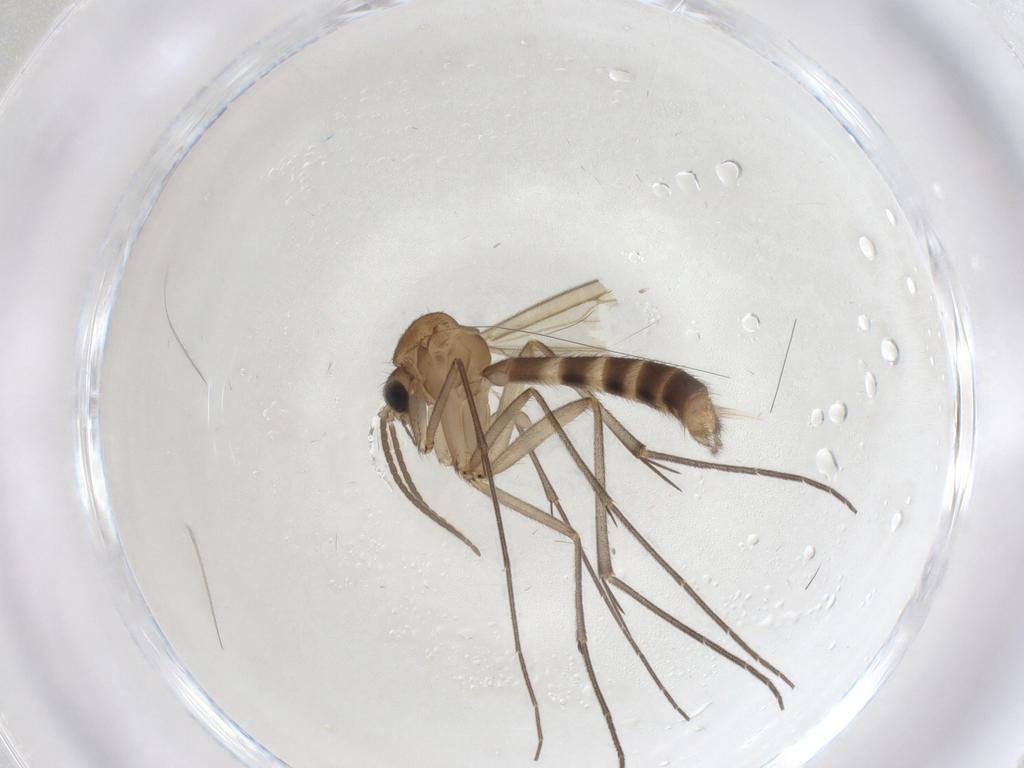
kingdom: Animalia
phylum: Arthropoda
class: Insecta
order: Diptera
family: Mycetophilidae
